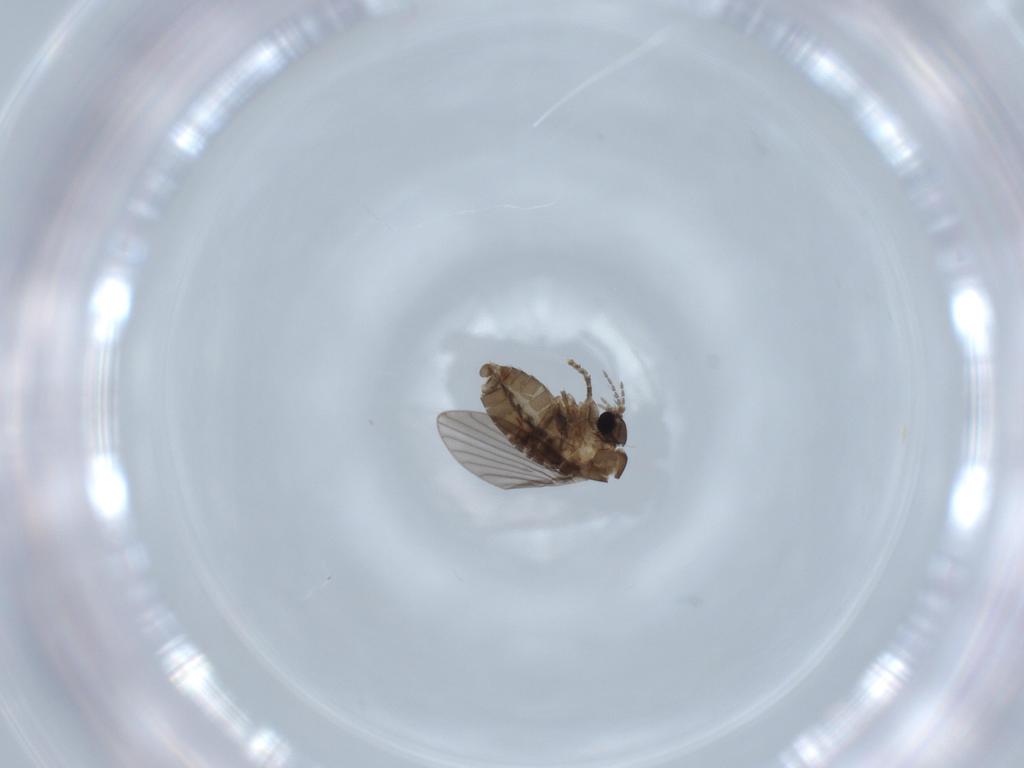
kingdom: Animalia
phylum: Arthropoda
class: Insecta
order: Diptera
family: Psychodidae
